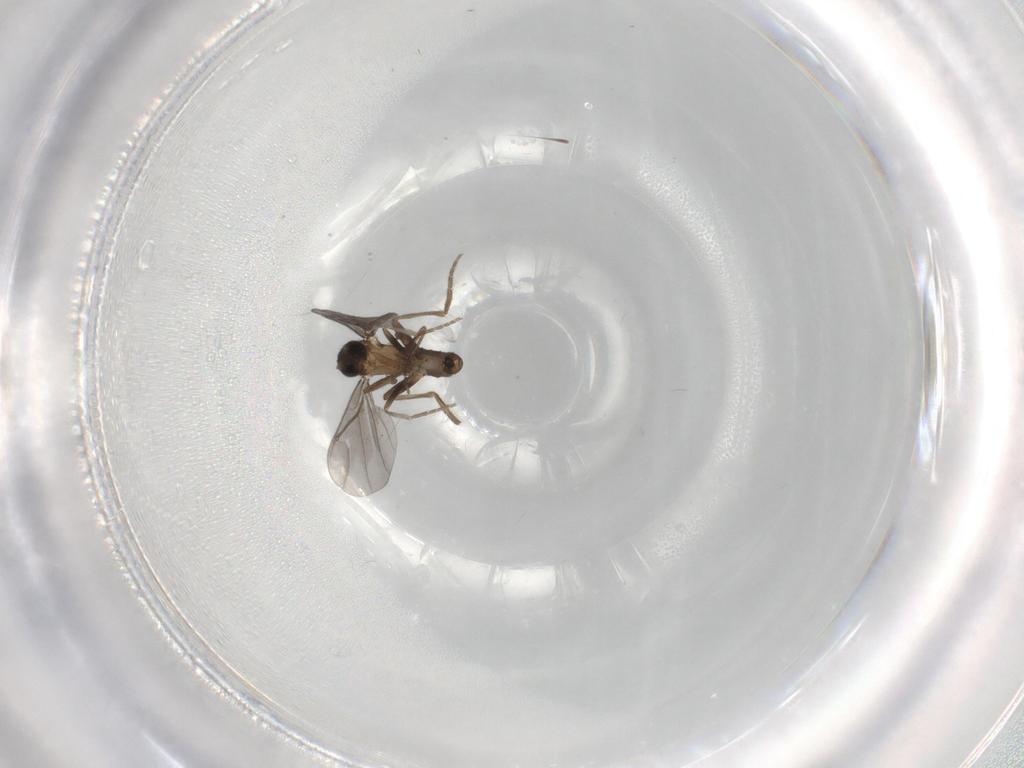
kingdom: Animalia
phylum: Arthropoda
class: Insecta
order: Diptera
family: Phoridae
